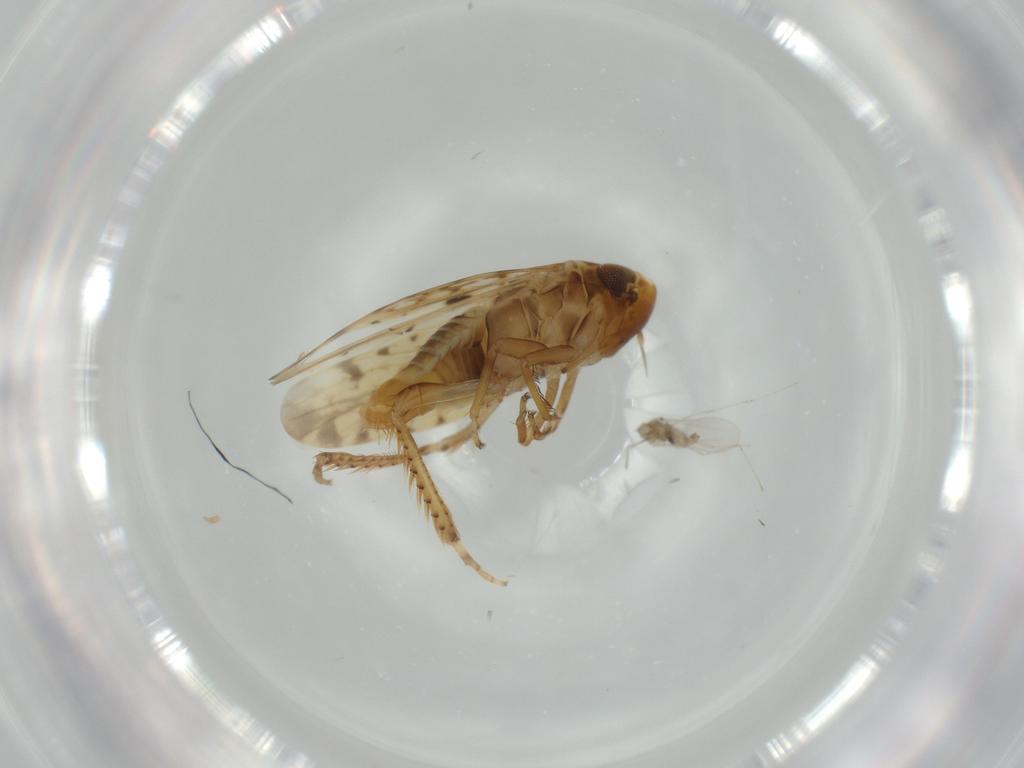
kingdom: Animalia
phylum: Arthropoda
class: Insecta
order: Hemiptera
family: Cicadellidae
